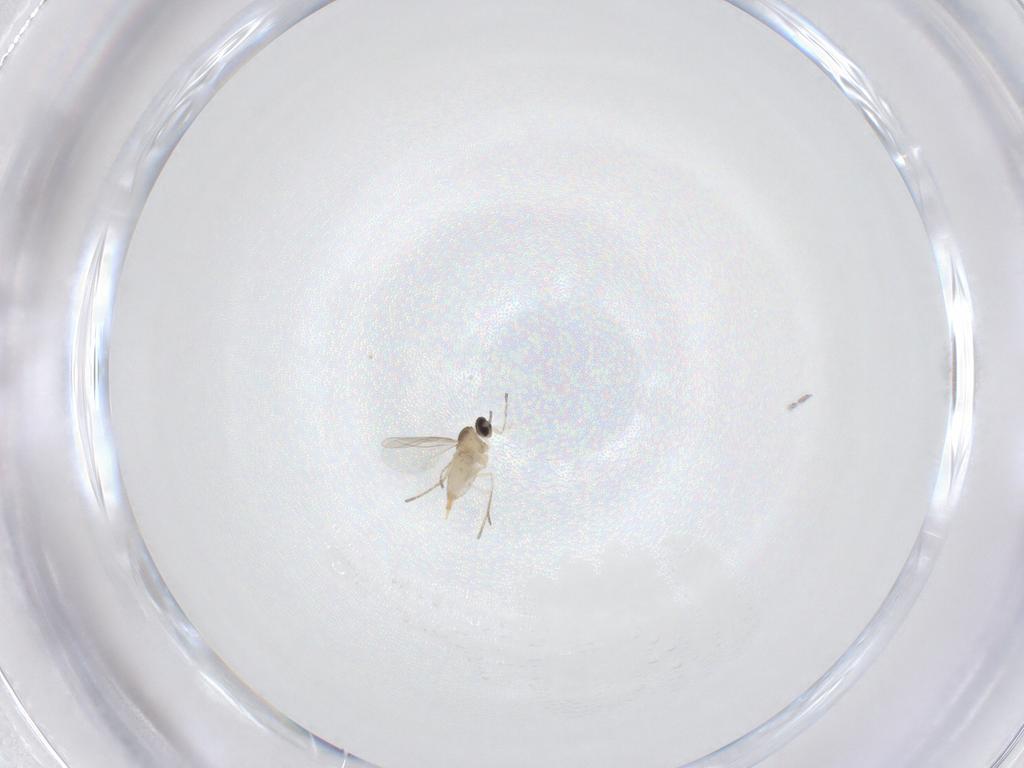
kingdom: Animalia
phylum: Arthropoda
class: Insecta
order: Diptera
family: Cecidomyiidae
